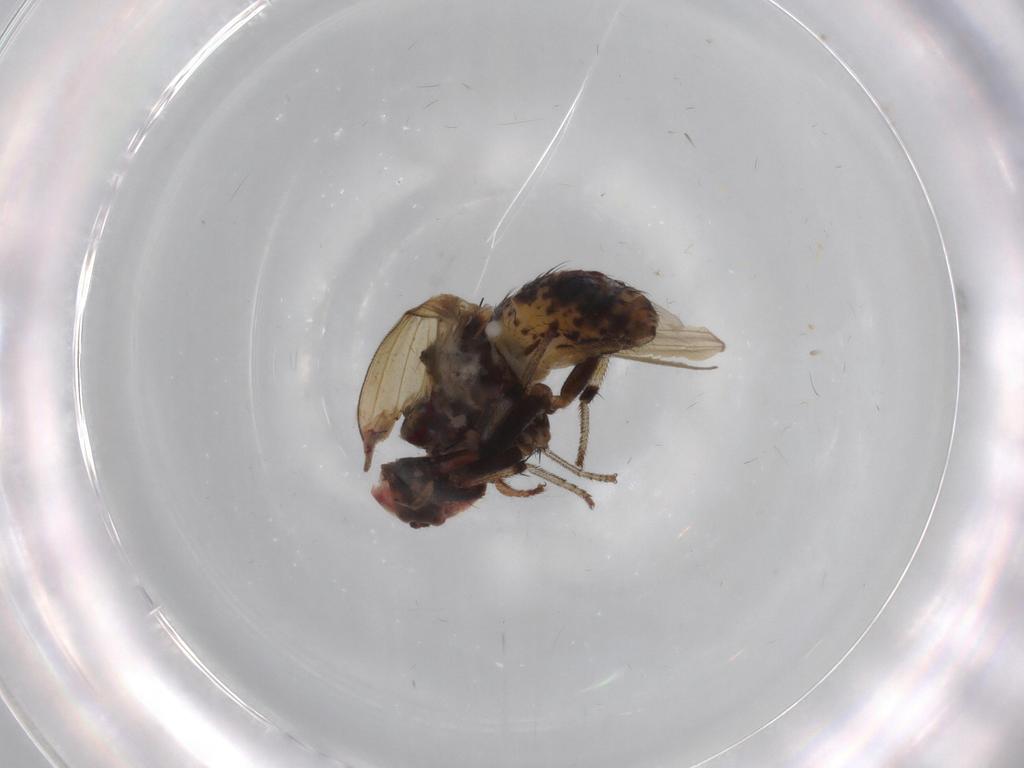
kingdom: Animalia
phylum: Arthropoda
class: Insecta
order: Diptera
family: Chironomidae
